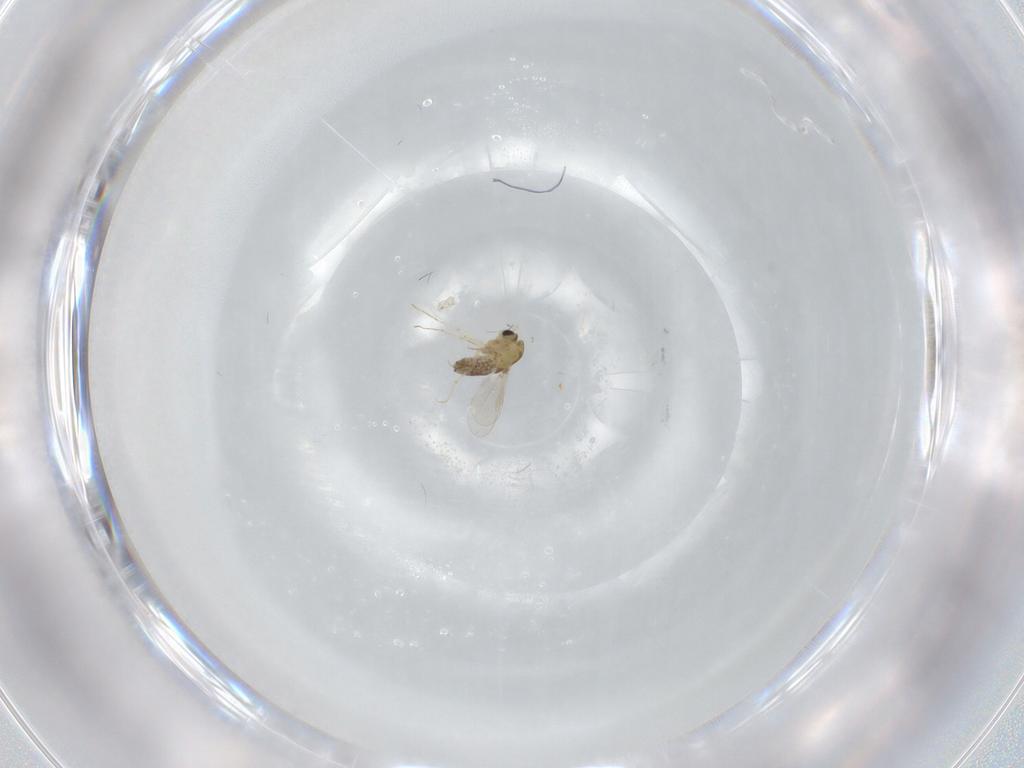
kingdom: Animalia
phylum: Arthropoda
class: Insecta
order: Diptera
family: Chironomidae
